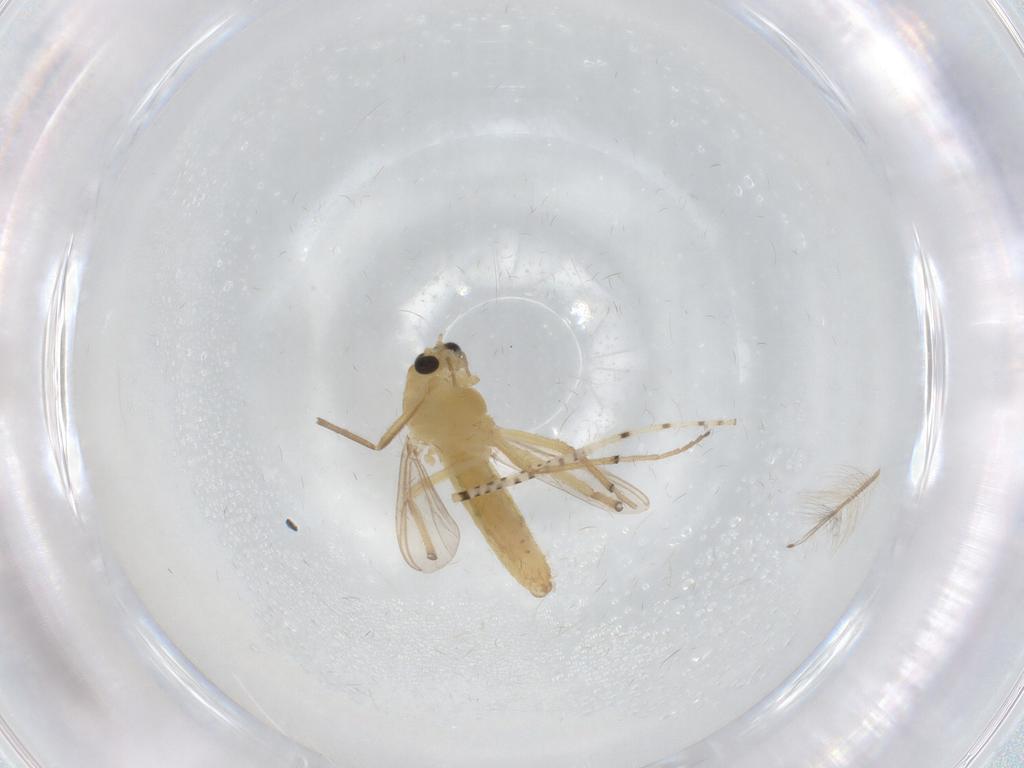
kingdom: Animalia
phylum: Arthropoda
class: Insecta
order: Diptera
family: Chironomidae
